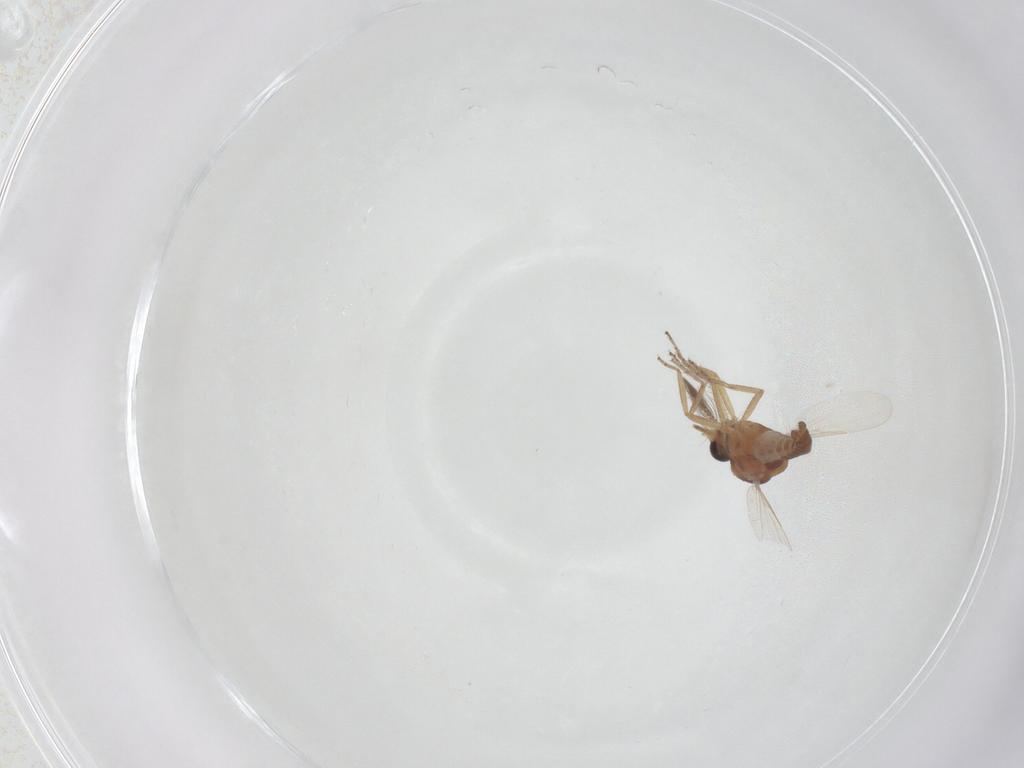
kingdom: Animalia
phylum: Arthropoda
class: Insecta
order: Diptera
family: Ceratopogonidae
